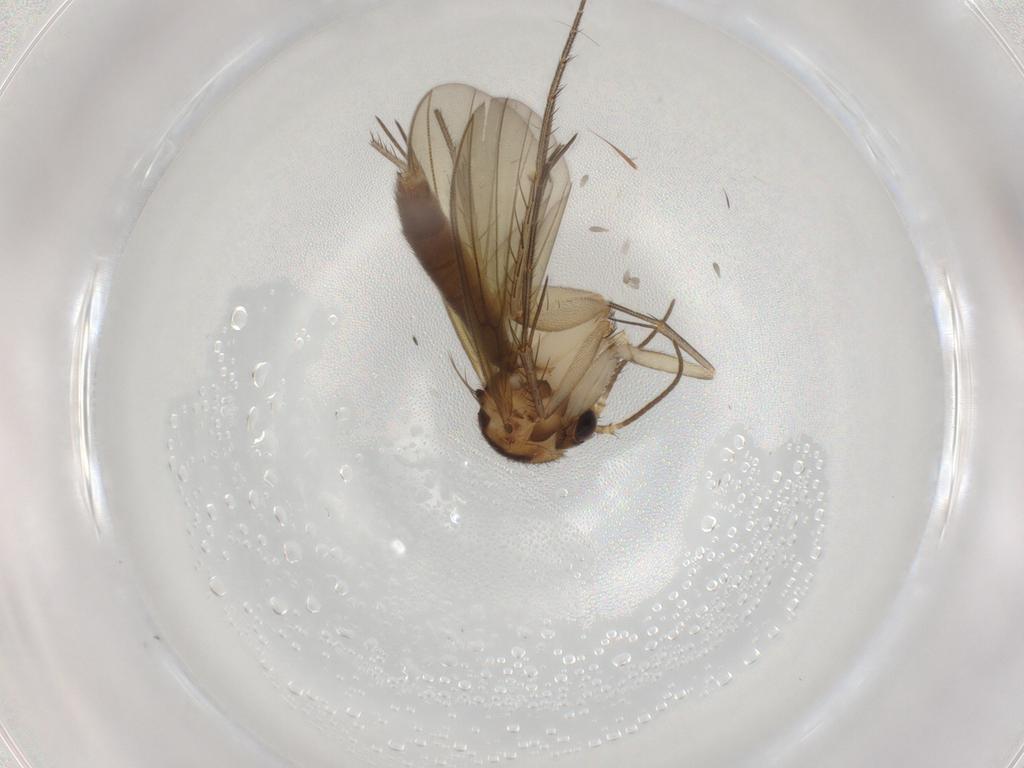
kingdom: Animalia
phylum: Arthropoda
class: Insecta
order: Diptera
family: Mycetophilidae
